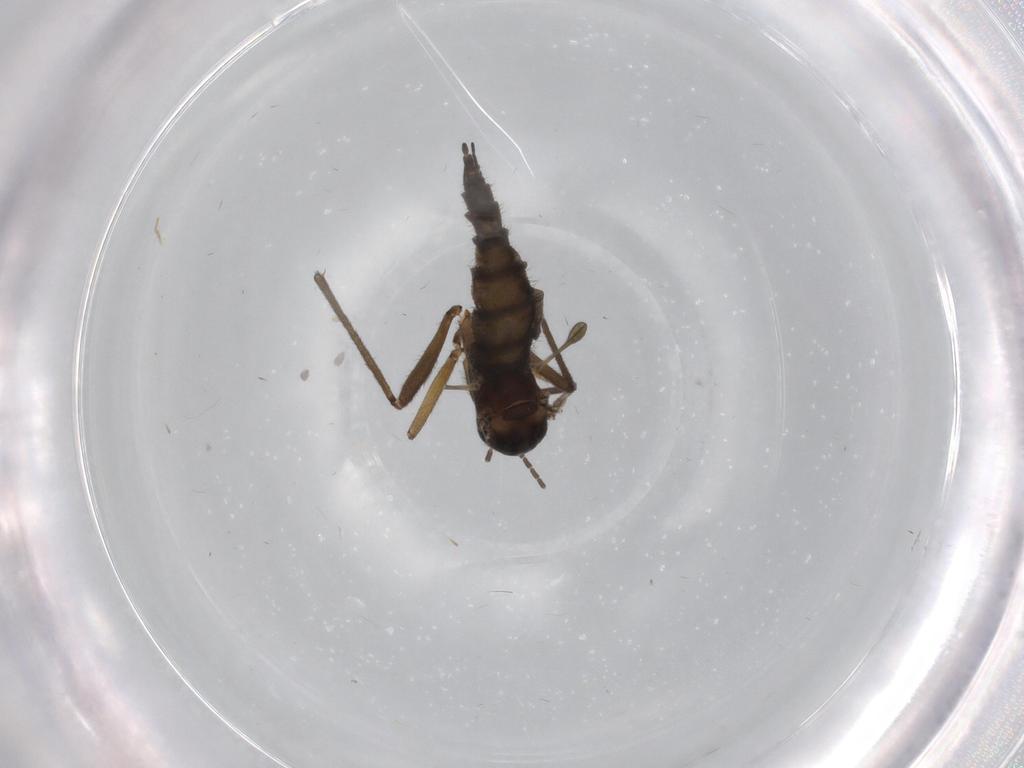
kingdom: Animalia
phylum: Arthropoda
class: Insecta
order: Diptera
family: Sciaridae
